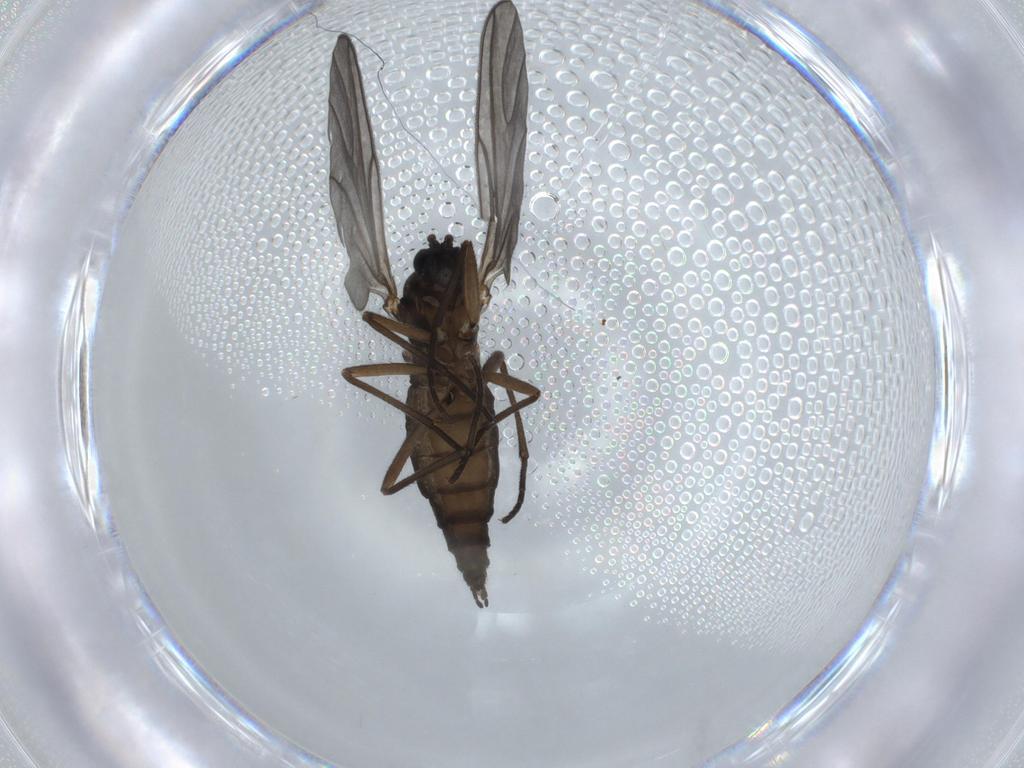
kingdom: Animalia
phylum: Arthropoda
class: Insecta
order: Diptera
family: Sciaridae
